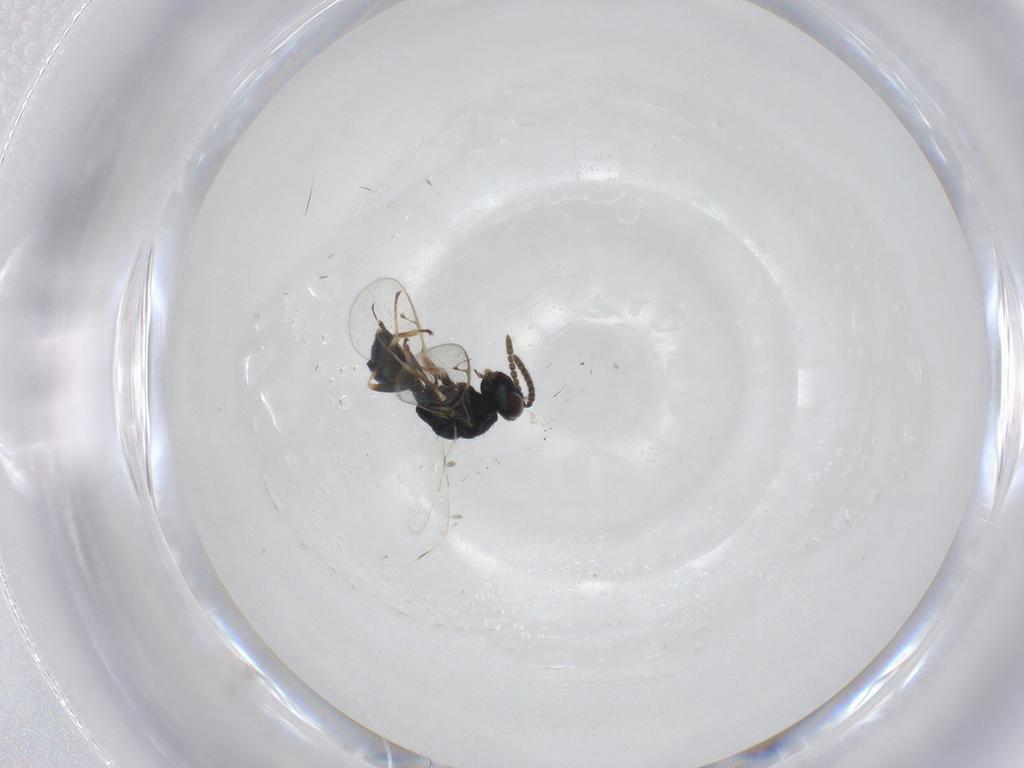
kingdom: Animalia
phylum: Arthropoda
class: Insecta
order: Hymenoptera
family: Pteromalidae
